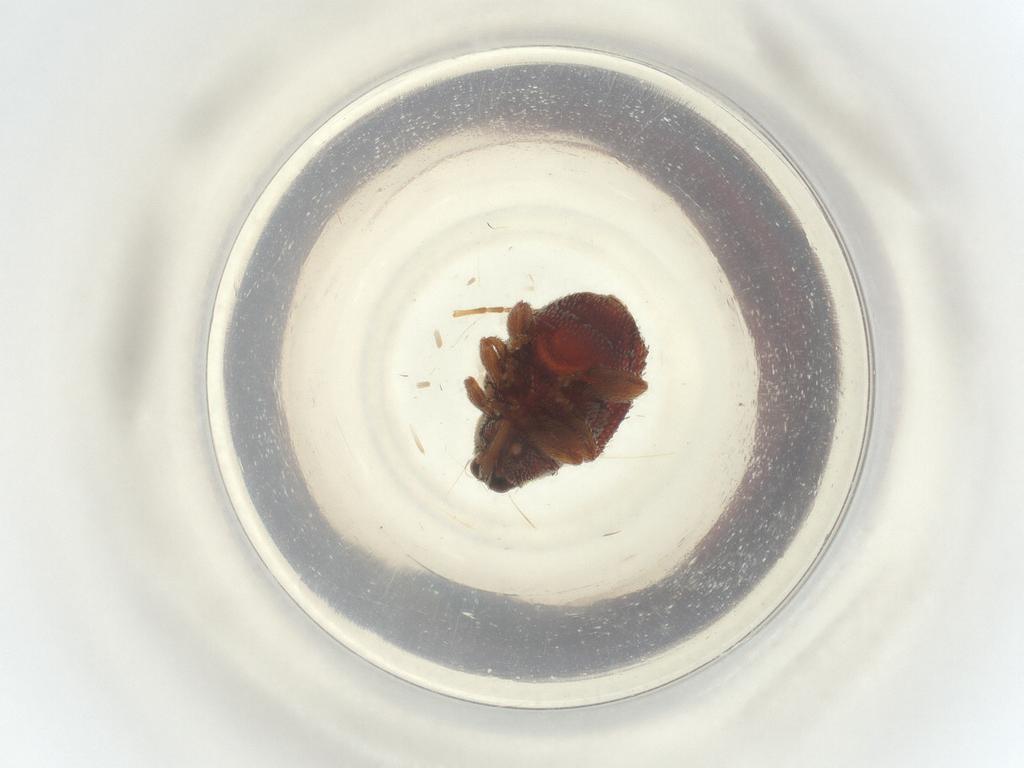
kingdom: Animalia
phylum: Arthropoda
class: Insecta
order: Hymenoptera
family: Braconidae
